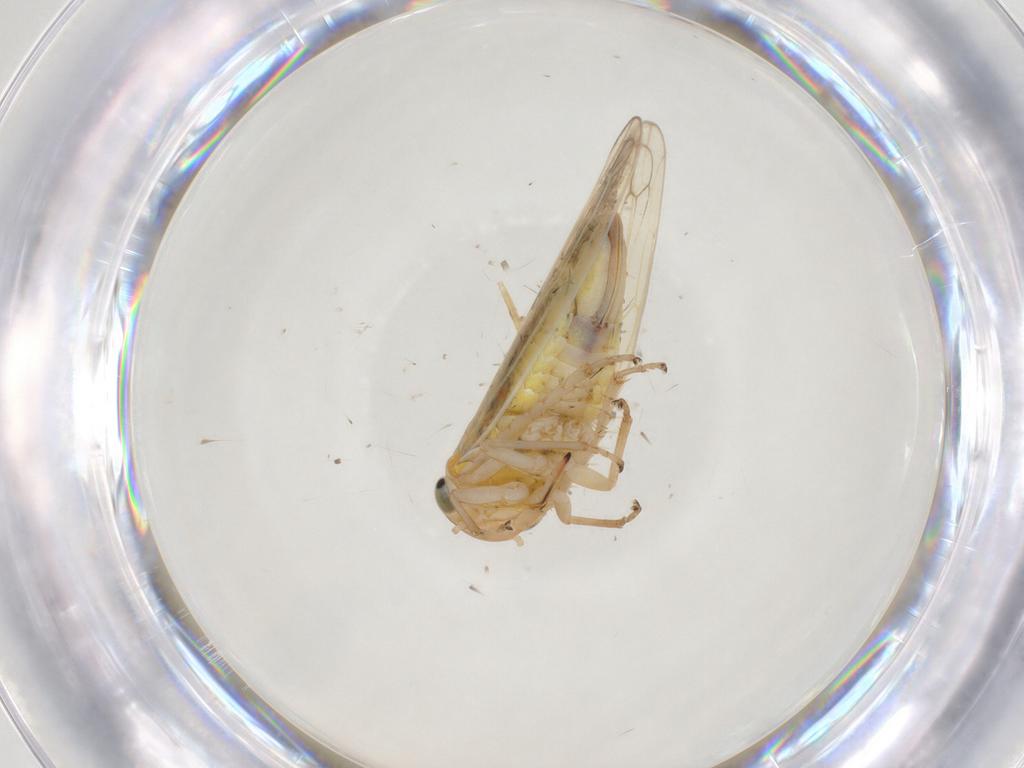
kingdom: Animalia
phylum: Arthropoda
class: Insecta
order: Hemiptera
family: Cicadellidae
